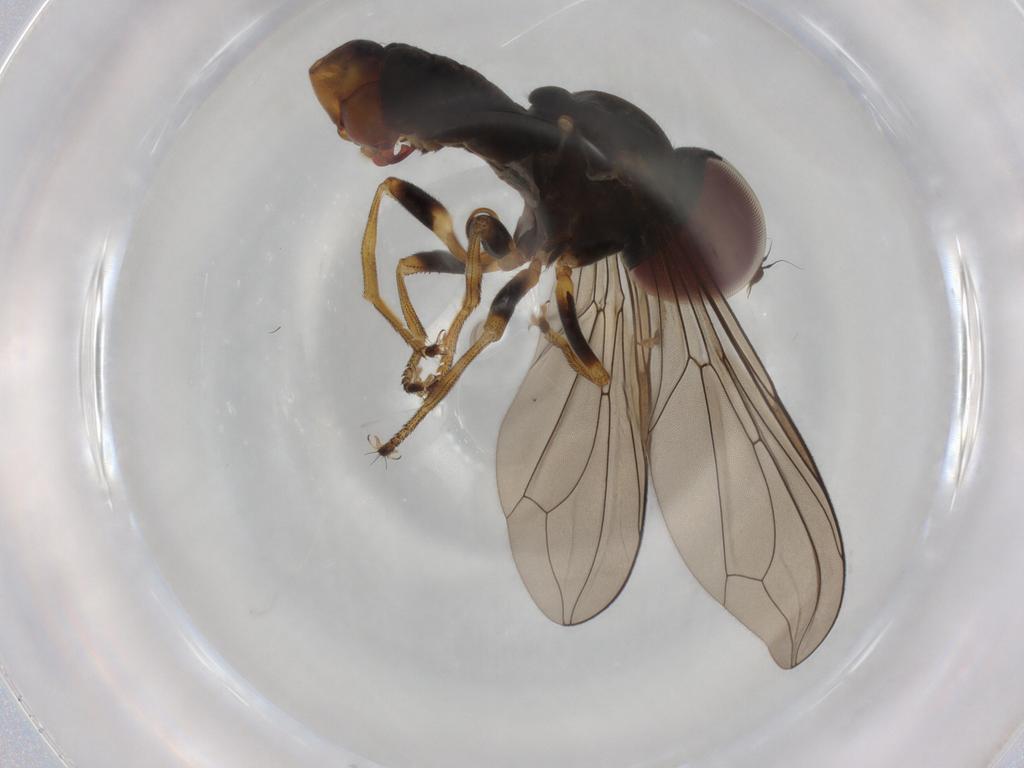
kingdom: Animalia
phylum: Arthropoda
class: Insecta
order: Diptera
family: Pipunculidae
